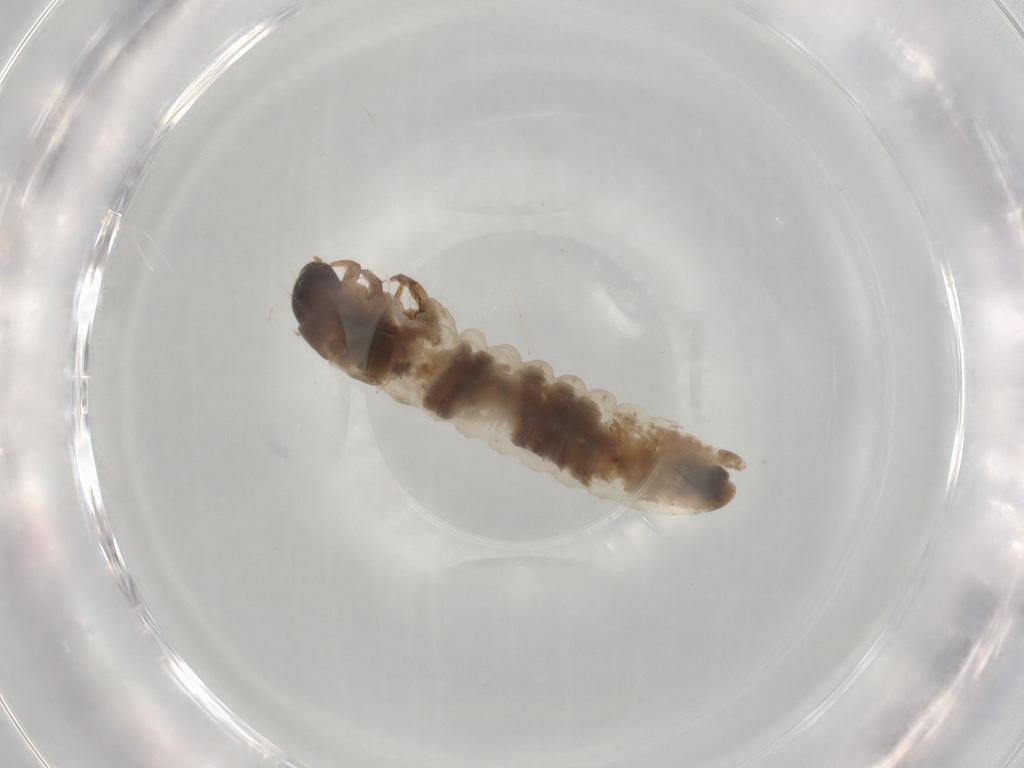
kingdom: Animalia
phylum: Arthropoda
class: Insecta
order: Lepidoptera
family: Psychidae
